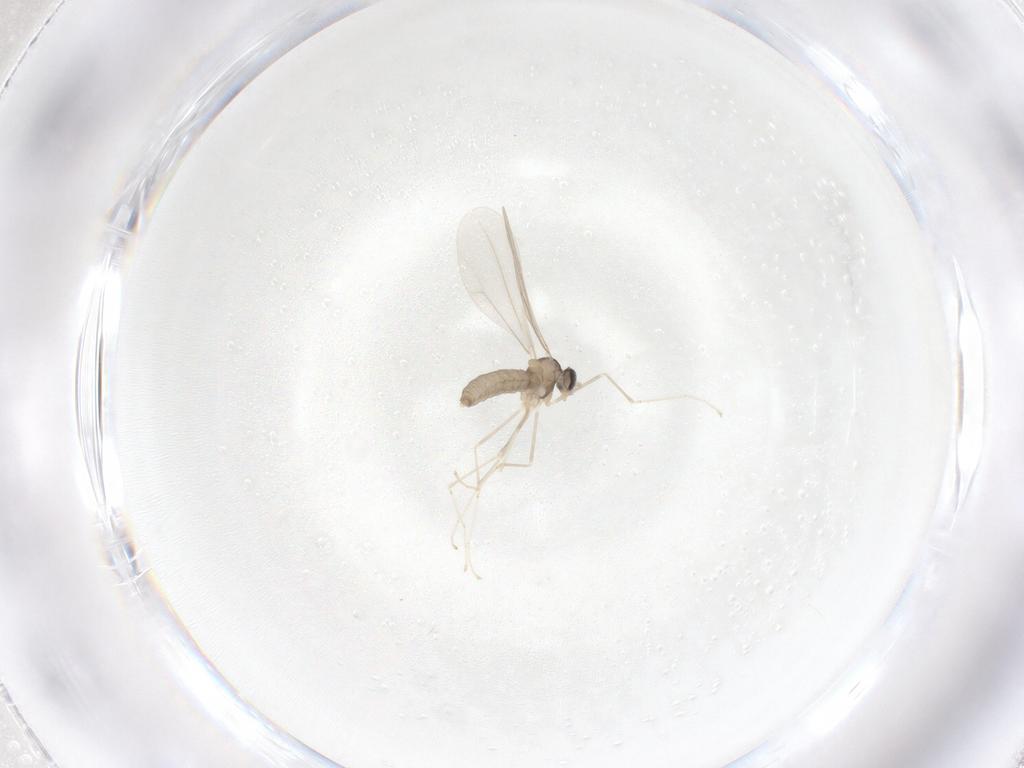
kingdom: Animalia
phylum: Arthropoda
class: Insecta
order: Diptera
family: Cecidomyiidae
